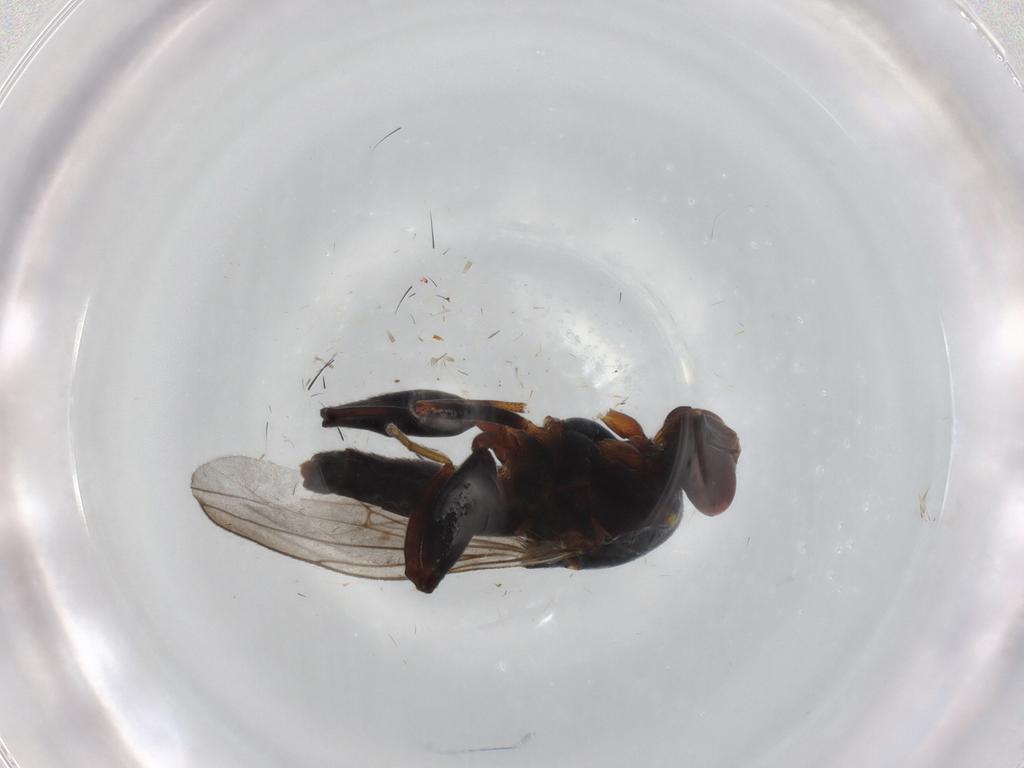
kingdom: Animalia
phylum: Arthropoda
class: Insecta
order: Diptera
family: Chloropidae
